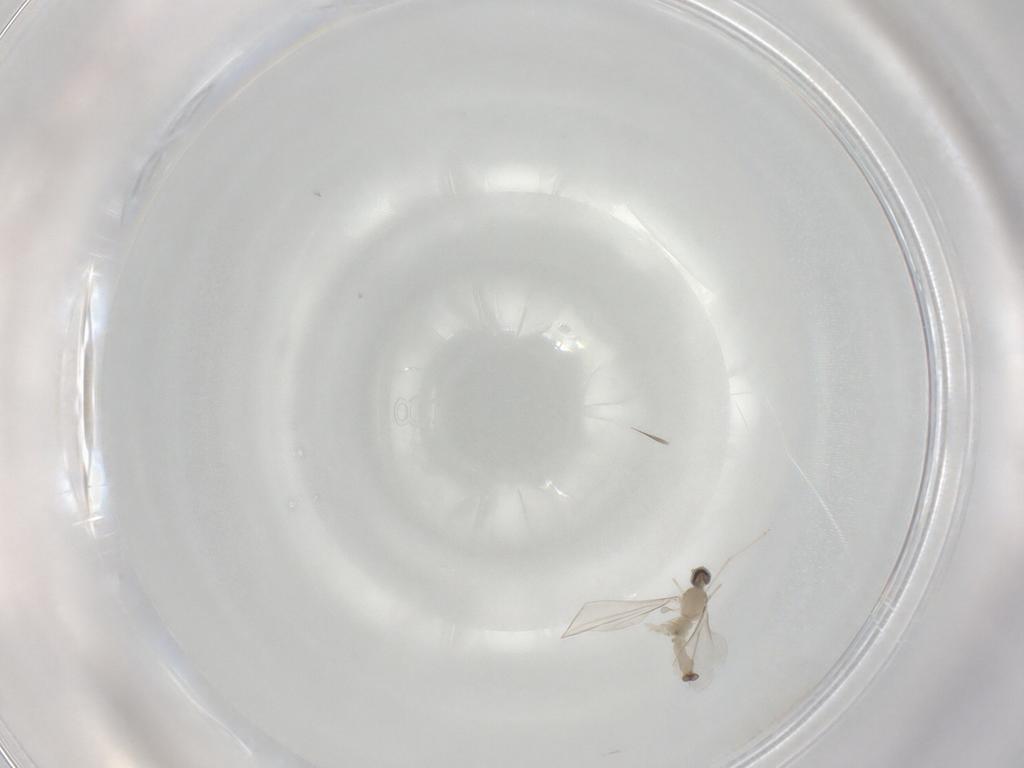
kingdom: Animalia
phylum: Arthropoda
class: Insecta
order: Diptera
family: Cecidomyiidae
